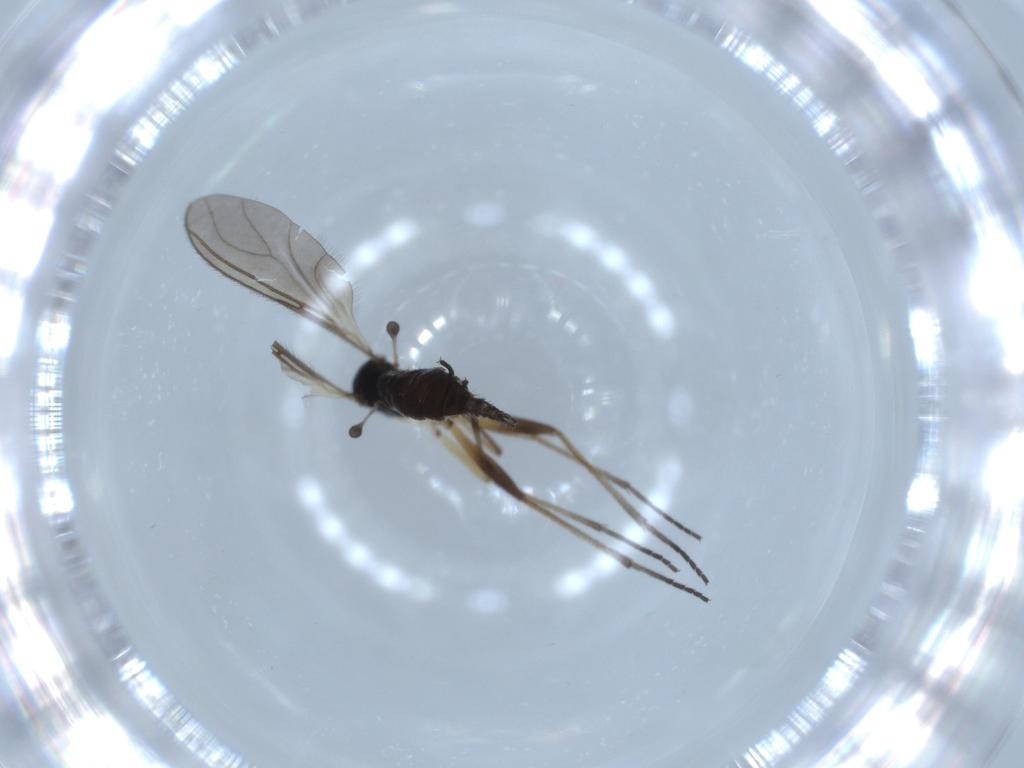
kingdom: Animalia
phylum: Arthropoda
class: Insecta
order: Diptera
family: Sciaridae
